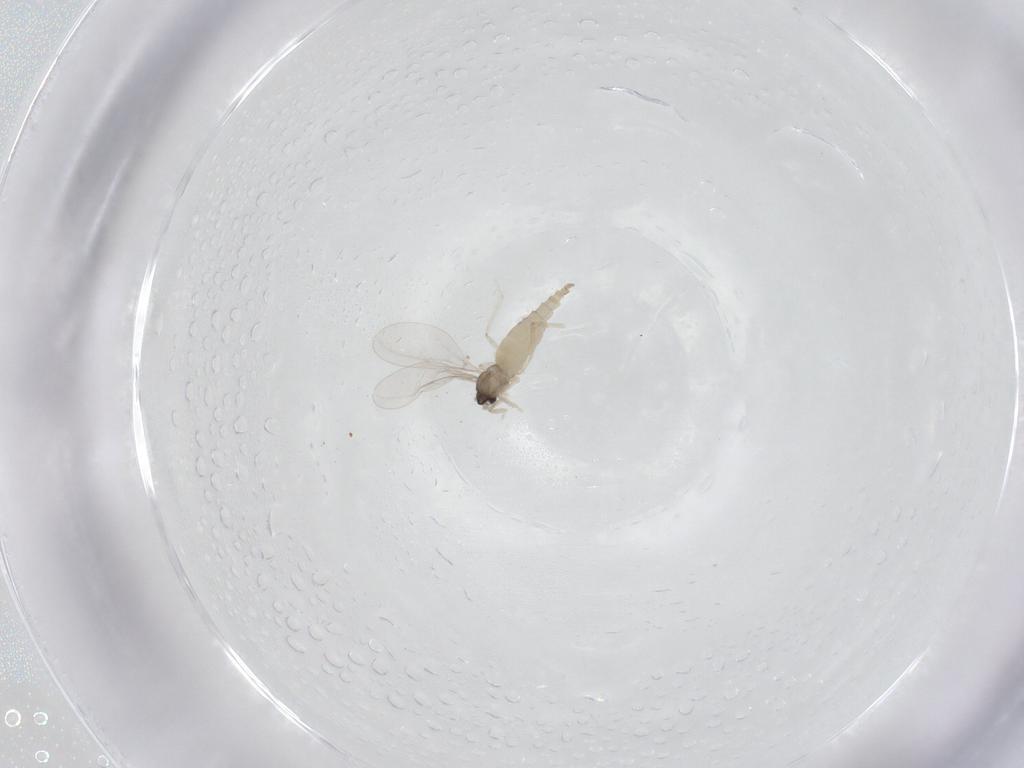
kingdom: Animalia
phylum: Arthropoda
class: Insecta
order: Diptera
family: Cecidomyiidae
